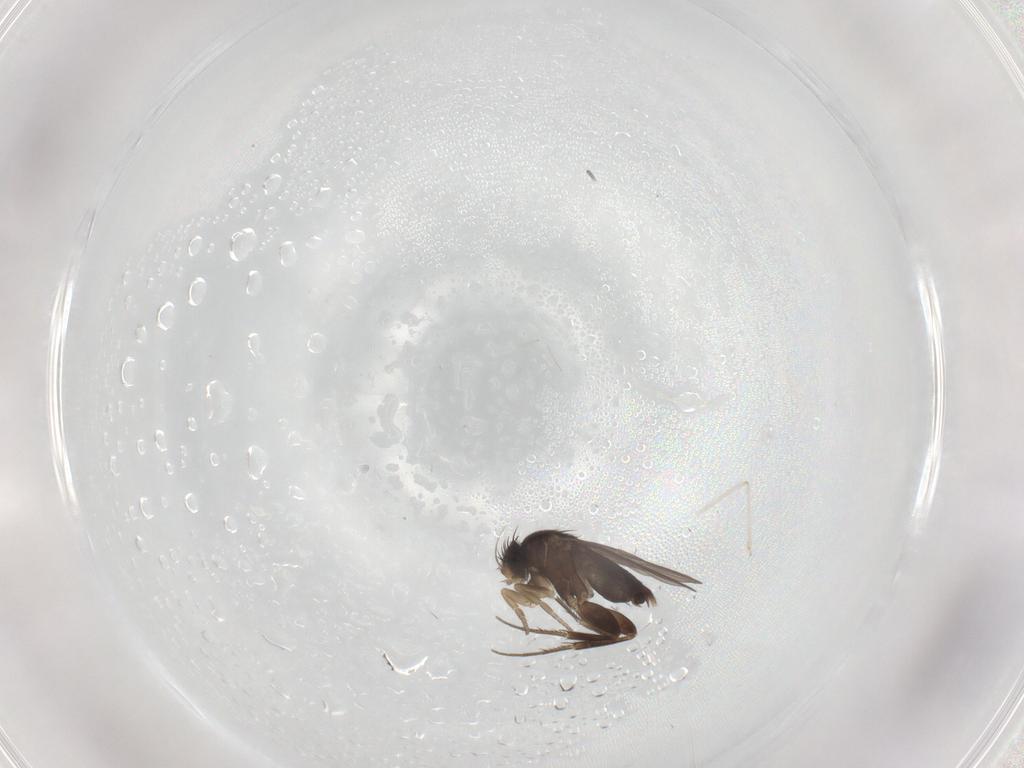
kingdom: Animalia
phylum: Arthropoda
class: Insecta
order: Diptera
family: Phoridae
